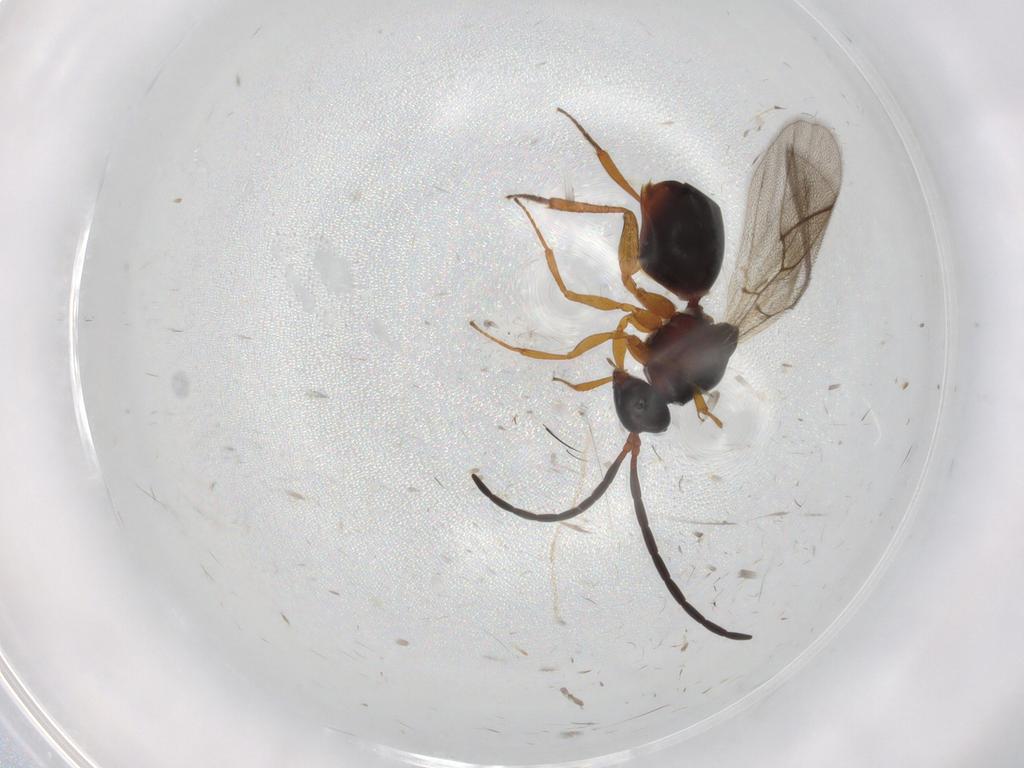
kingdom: Animalia
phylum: Arthropoda
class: Insecta
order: Hymenoptera
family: Figitidae
